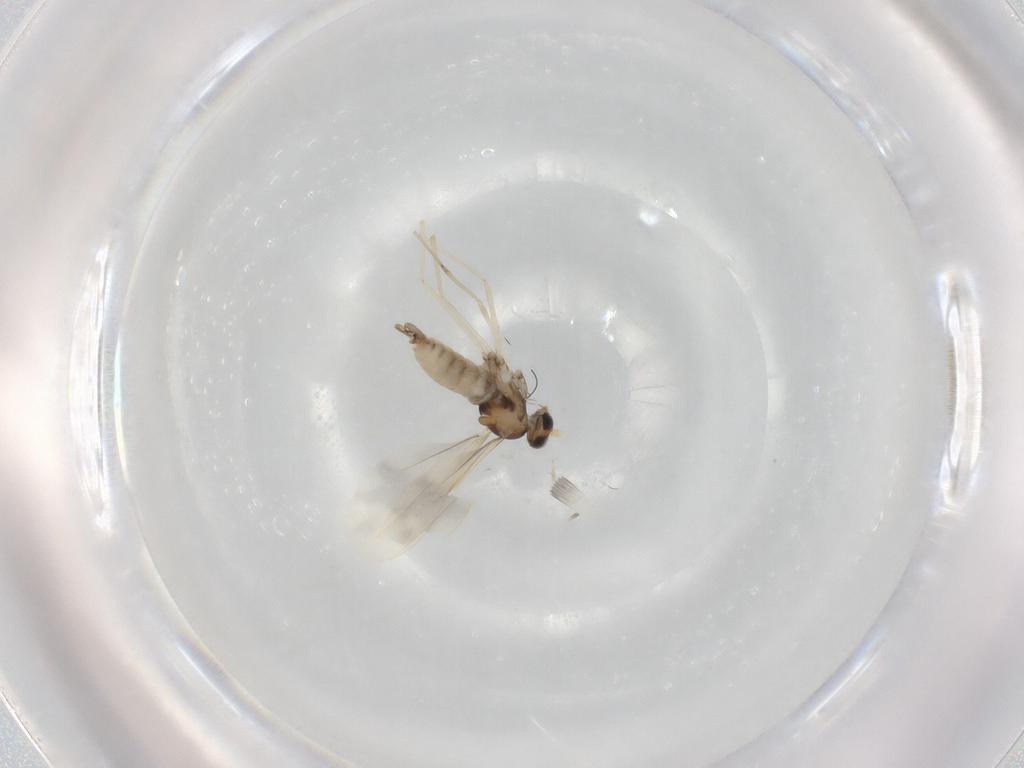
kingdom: Animalia
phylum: Arthropoda
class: Insecta
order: Diptera
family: Cecidomyiidae
